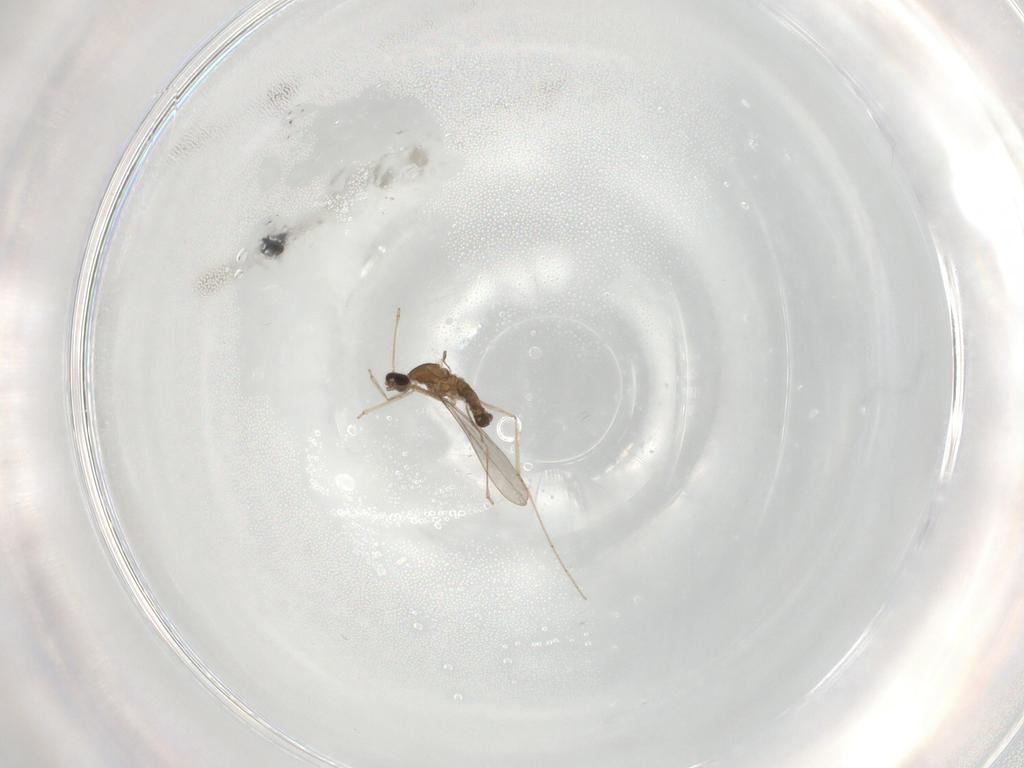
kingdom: Animalia
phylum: Arthropoda
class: Insecta
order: Diptera
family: Cecidomyiidae
